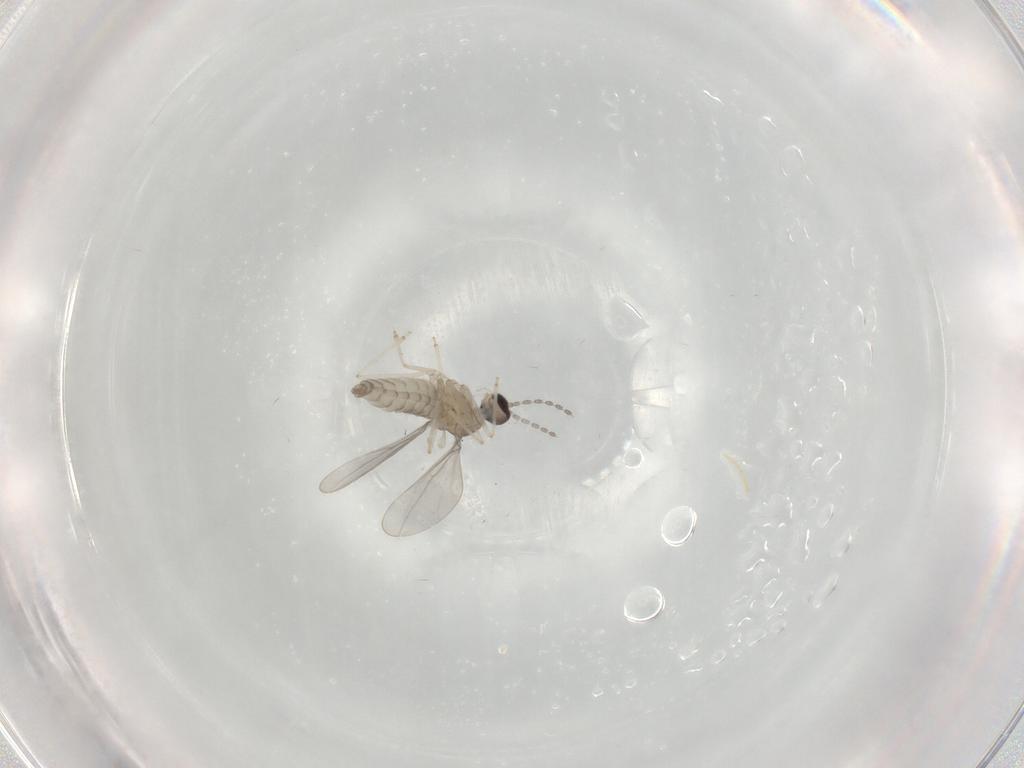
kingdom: Animalia
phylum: Arthropoda
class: Insecta
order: Diptera
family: Cecidomyiidae
